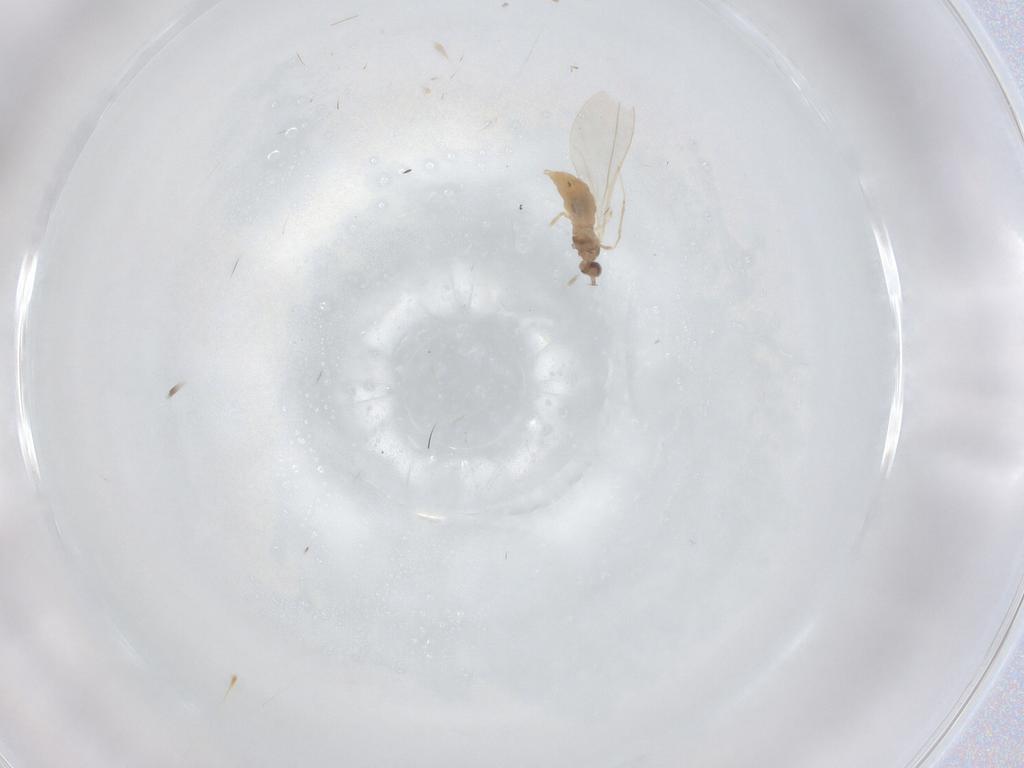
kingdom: Animalia
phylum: Arthropoda
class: Insecta
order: Diptera
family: Cecidomyiidae
